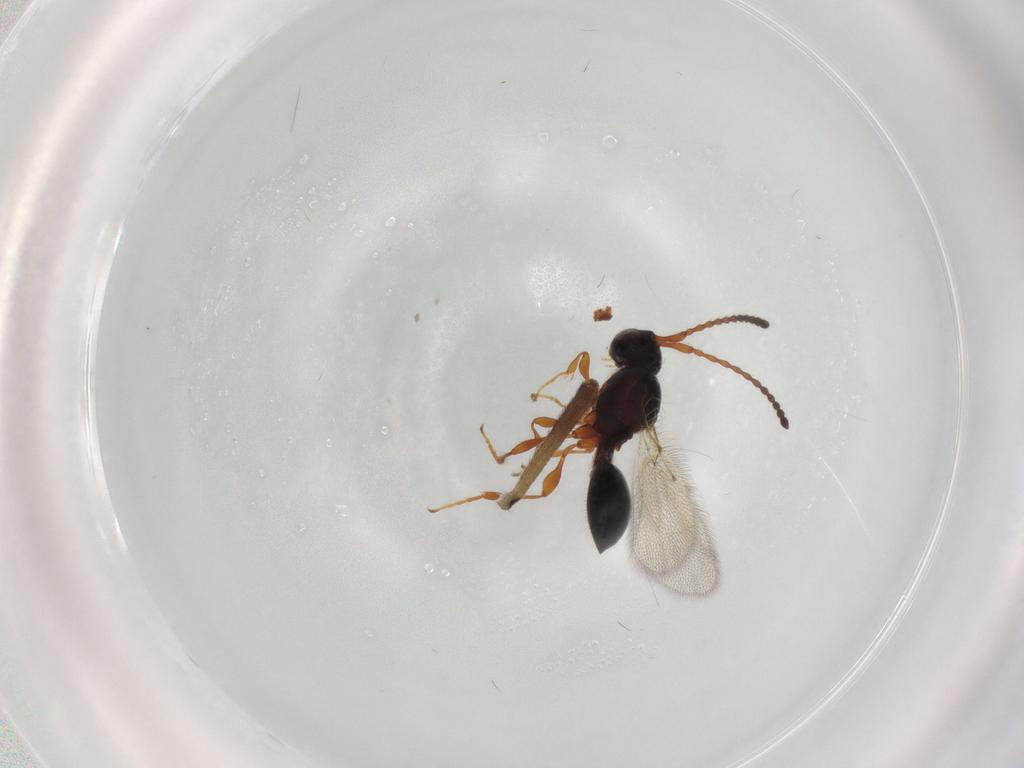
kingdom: Animalia
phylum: Arthropoda
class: Insecta
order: Hymenoptera
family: Diapriidae
